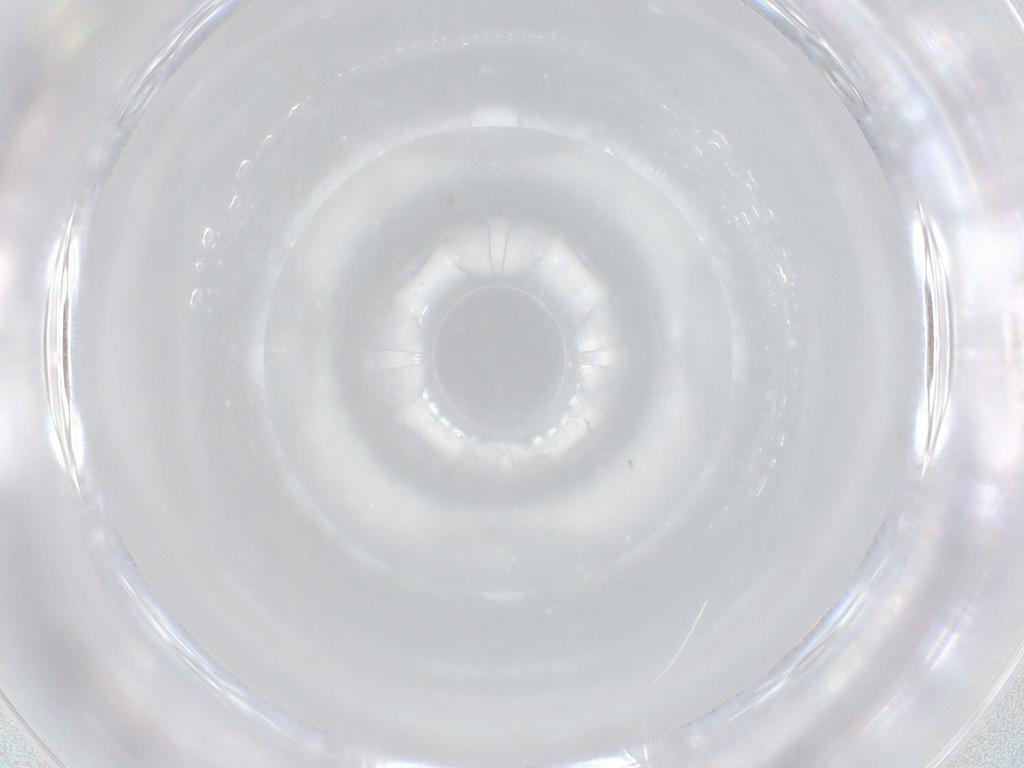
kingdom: Animalia
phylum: Arthropoda
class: Insecta
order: Diptera
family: Sciaridae
